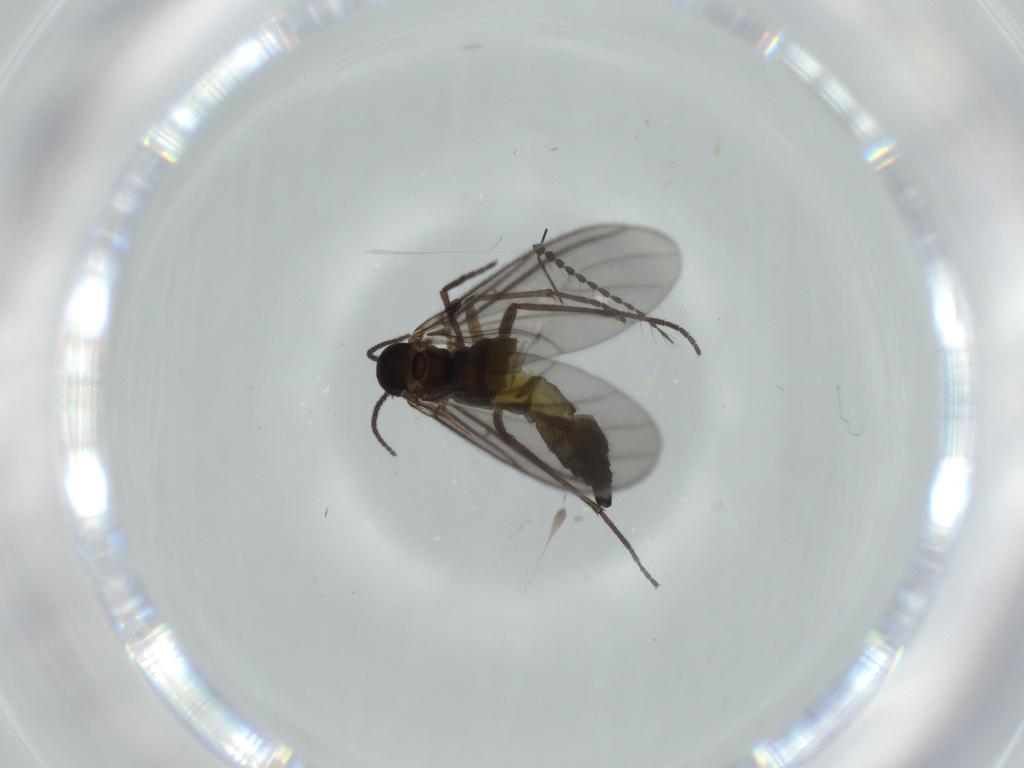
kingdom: Animalia
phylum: Arthropoda
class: Insecta
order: Diptera
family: Sciaridae
